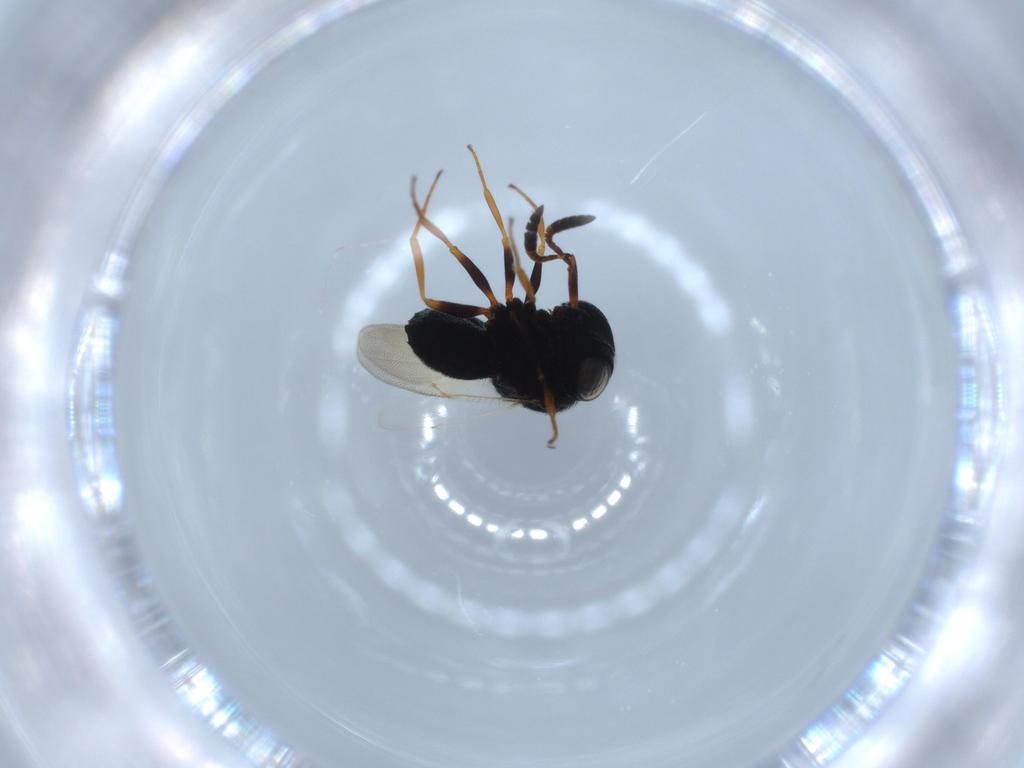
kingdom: Animalia
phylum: Arthropoda
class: Insecta
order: Hymenoptera
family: Scelionidae
